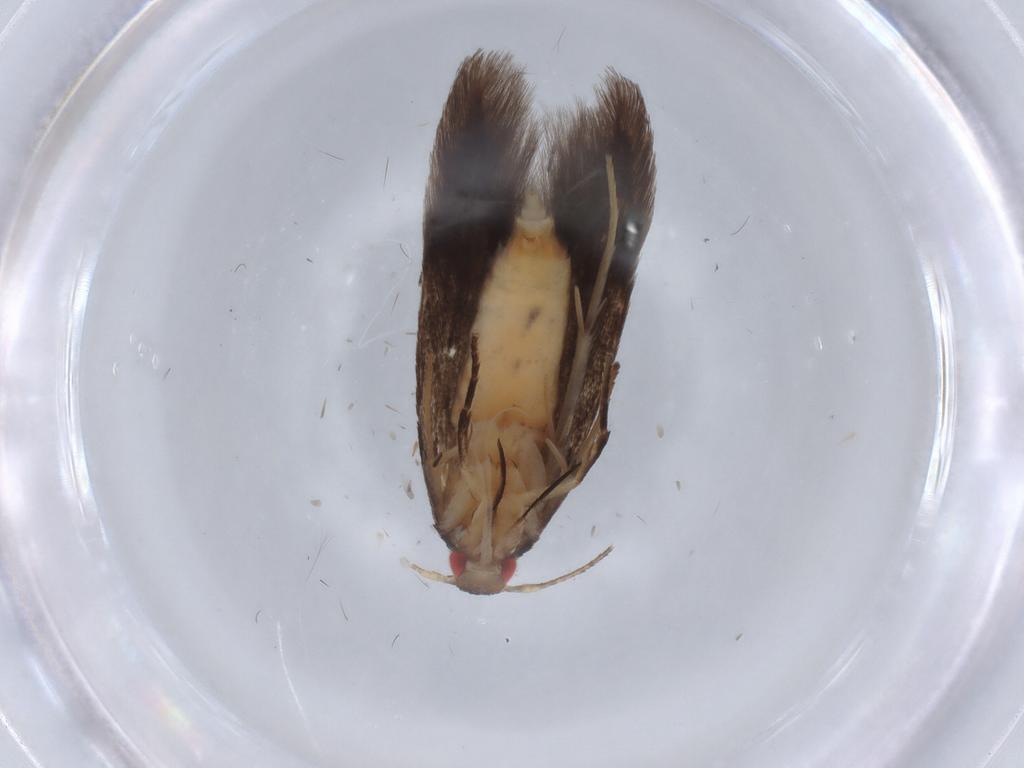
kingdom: Animalia
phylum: Arthropoda
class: Insecta
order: Lepidoptera
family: Cosmopterigidae
